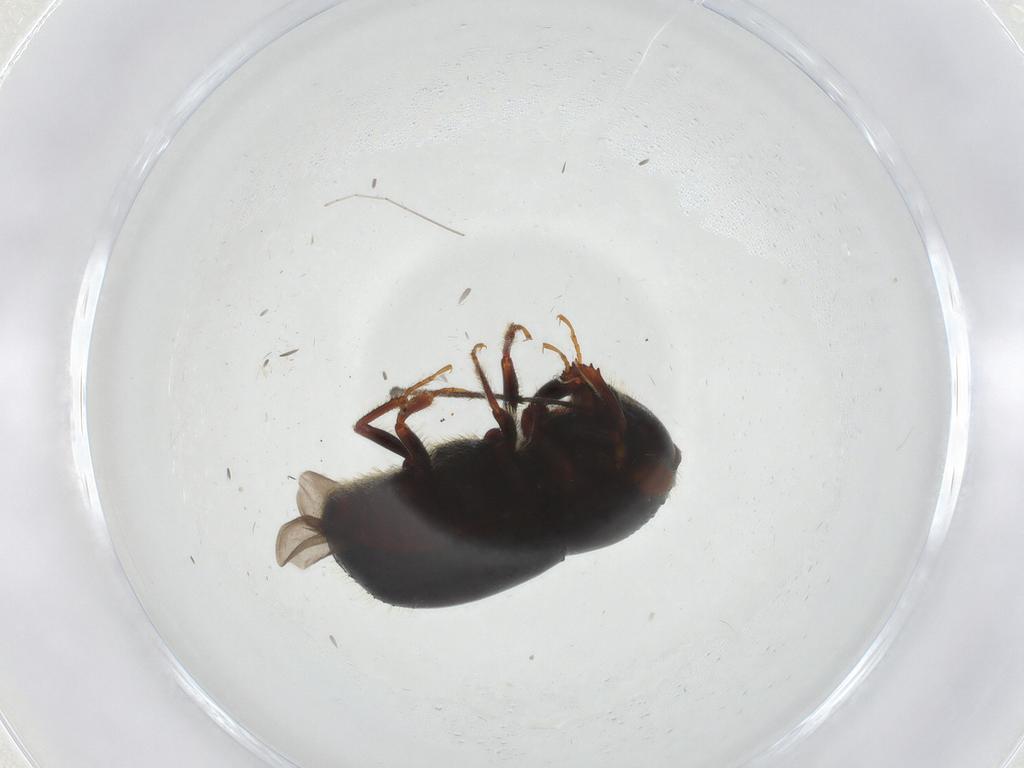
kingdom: Animalia
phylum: Arthropoda
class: Insecta
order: Coleoptera
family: Curculionidae
